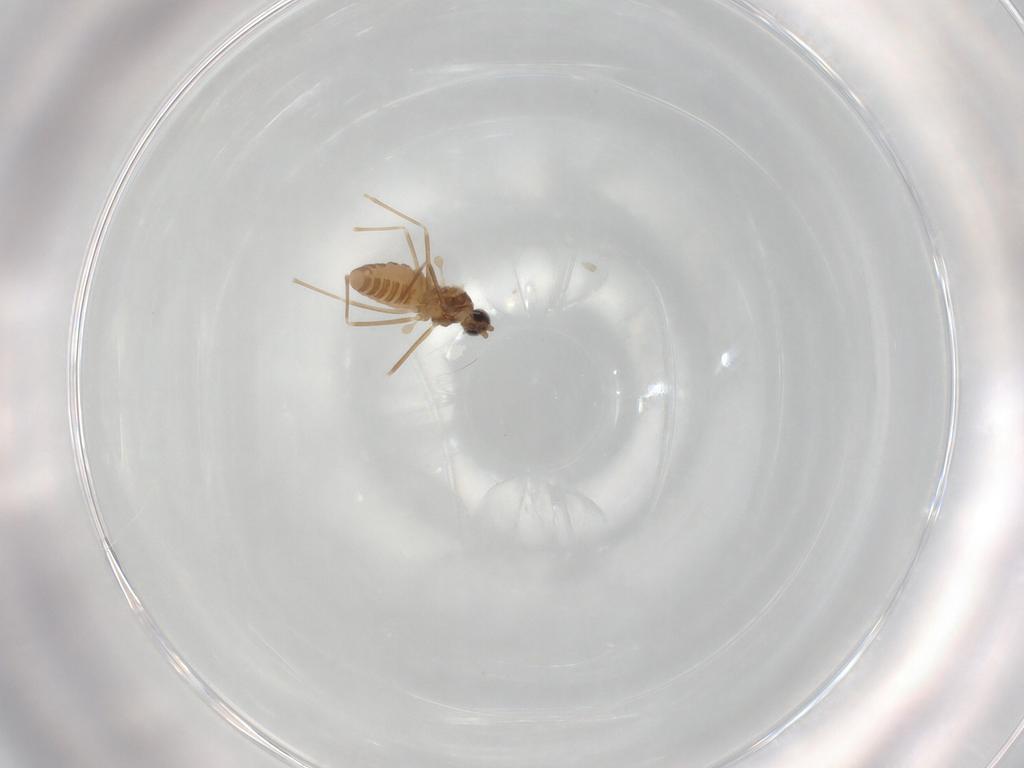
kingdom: Animalia
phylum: Arthropoda
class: Insecta
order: Diptera
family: Cecidomyiidae
